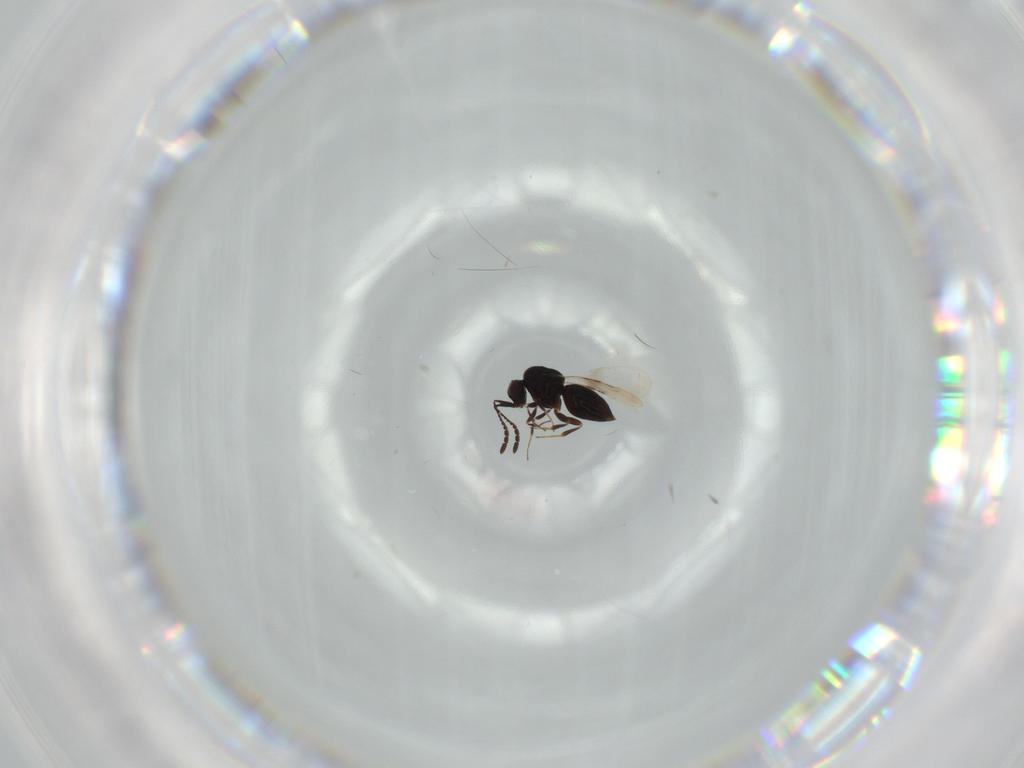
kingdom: Animalia
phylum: Arthropoda
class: Insecta
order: Hymenoptera
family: Ceraphronidae
